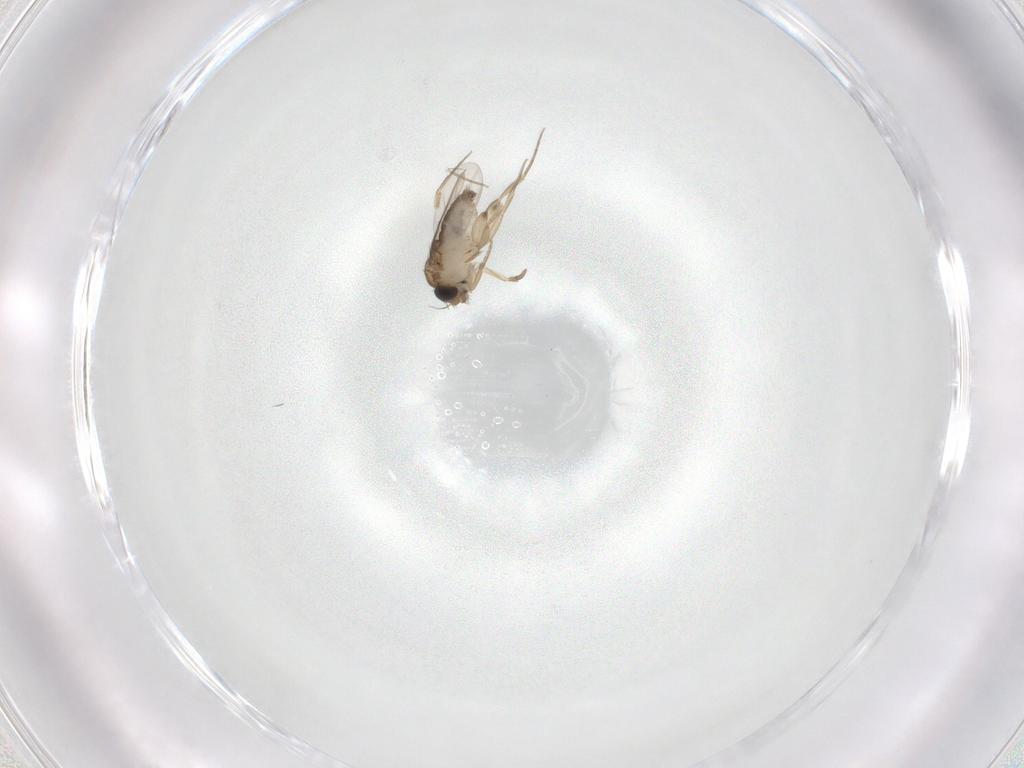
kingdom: Animalia
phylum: Arthropoda
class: Insecta
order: Diptera
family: Phoridae
